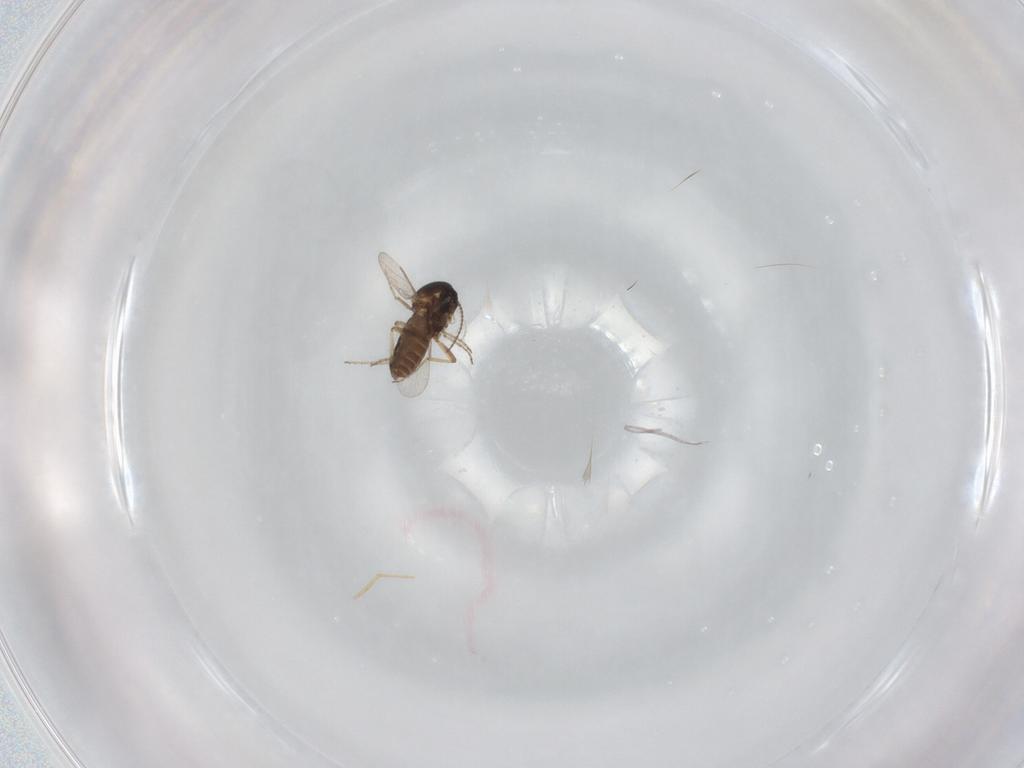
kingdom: Animalia
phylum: Arthropoda
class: Insecta
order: Diptera
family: Ceratopogonidae
